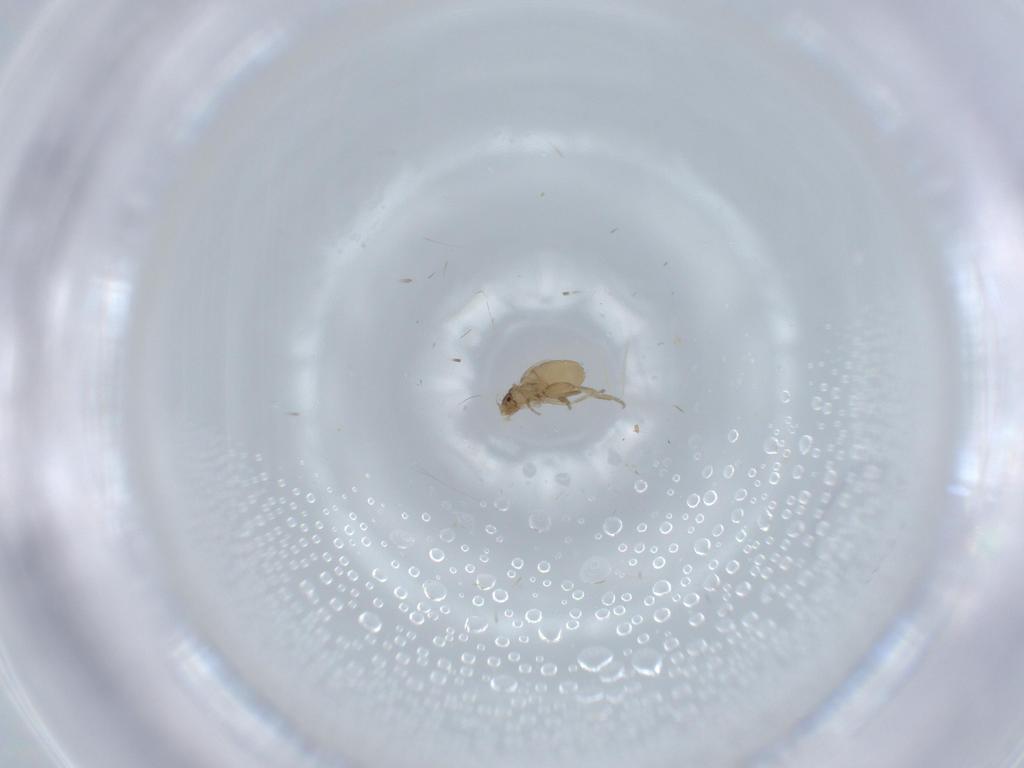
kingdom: Animalia
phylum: Arthropoda
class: Insecta
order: Diptera
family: Phoridae
